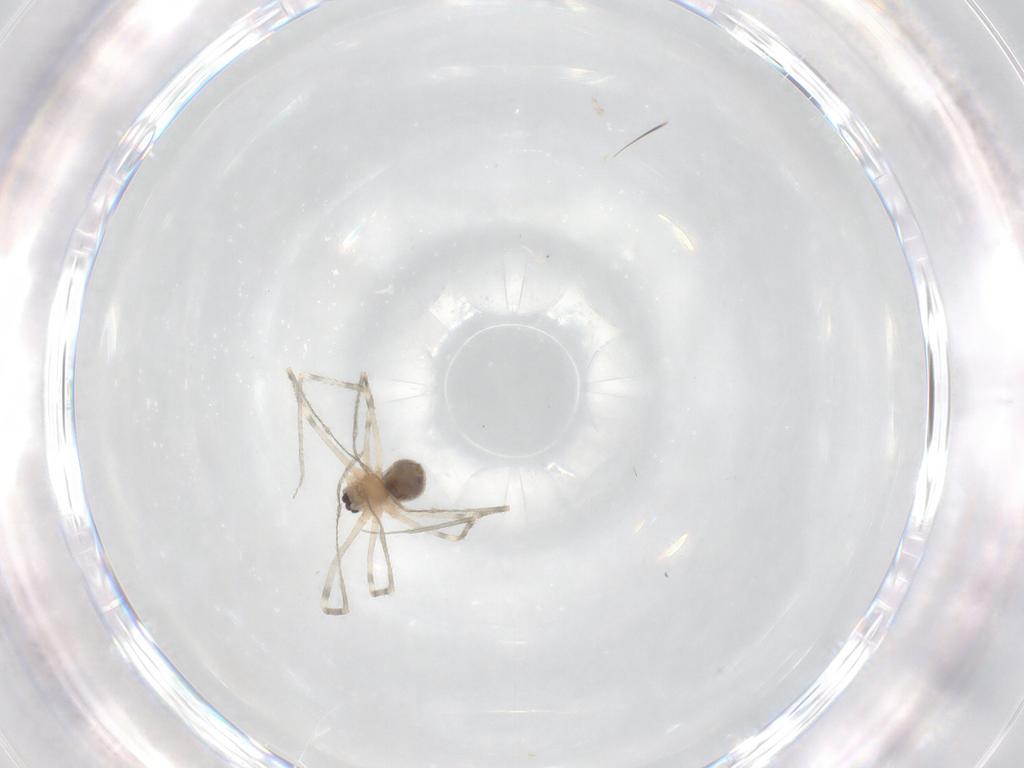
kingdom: Animalia
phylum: Arthropoda
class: Arachnida
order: Araneae
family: Pholcidae
